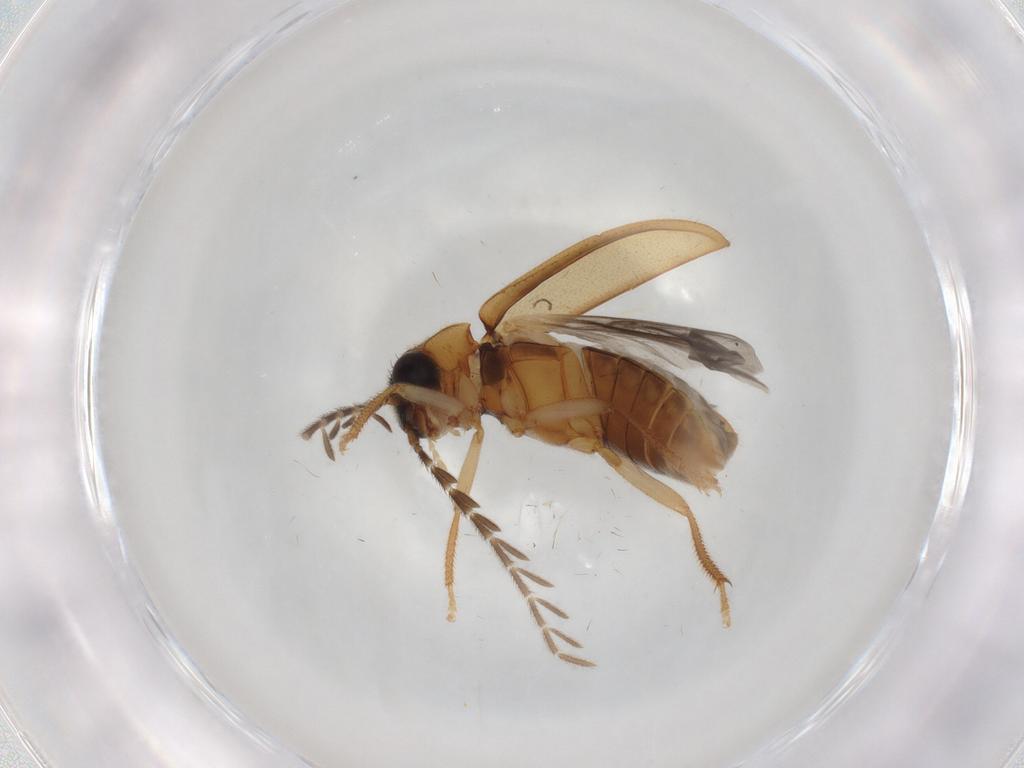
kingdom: Animalia
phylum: Arthropoda
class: Insecta
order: Coleoptera
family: Ptilodactylidae
